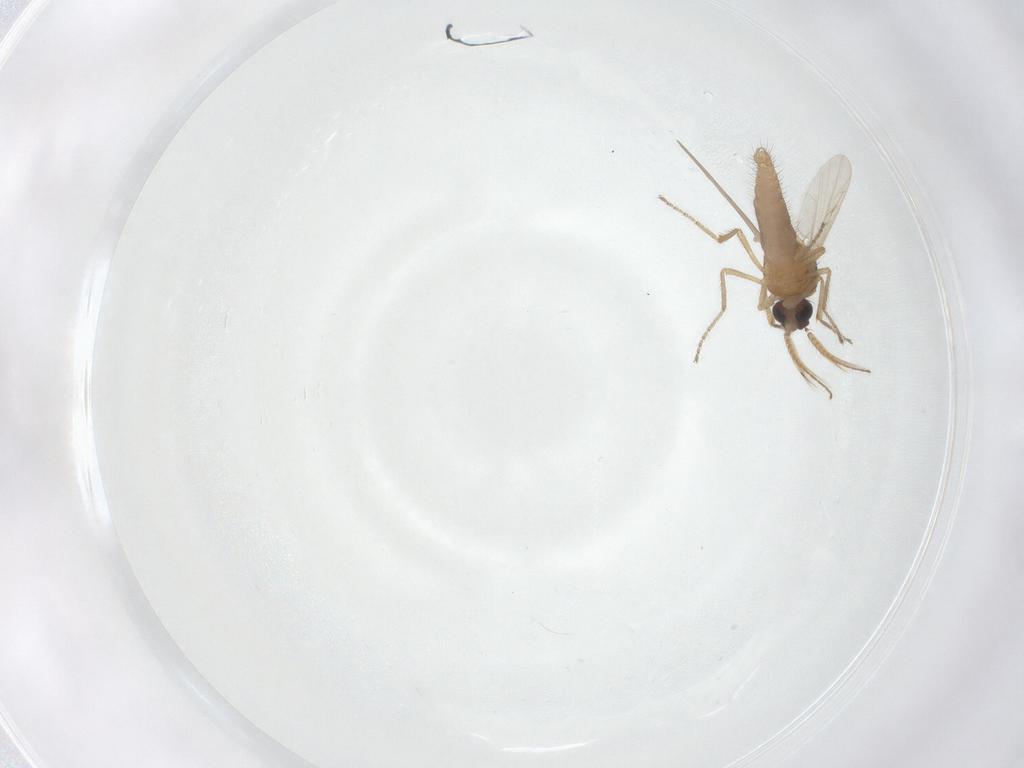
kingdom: Animalia
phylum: Arthropoda
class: Insecta
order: Diptera
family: Ceratopogonidae
